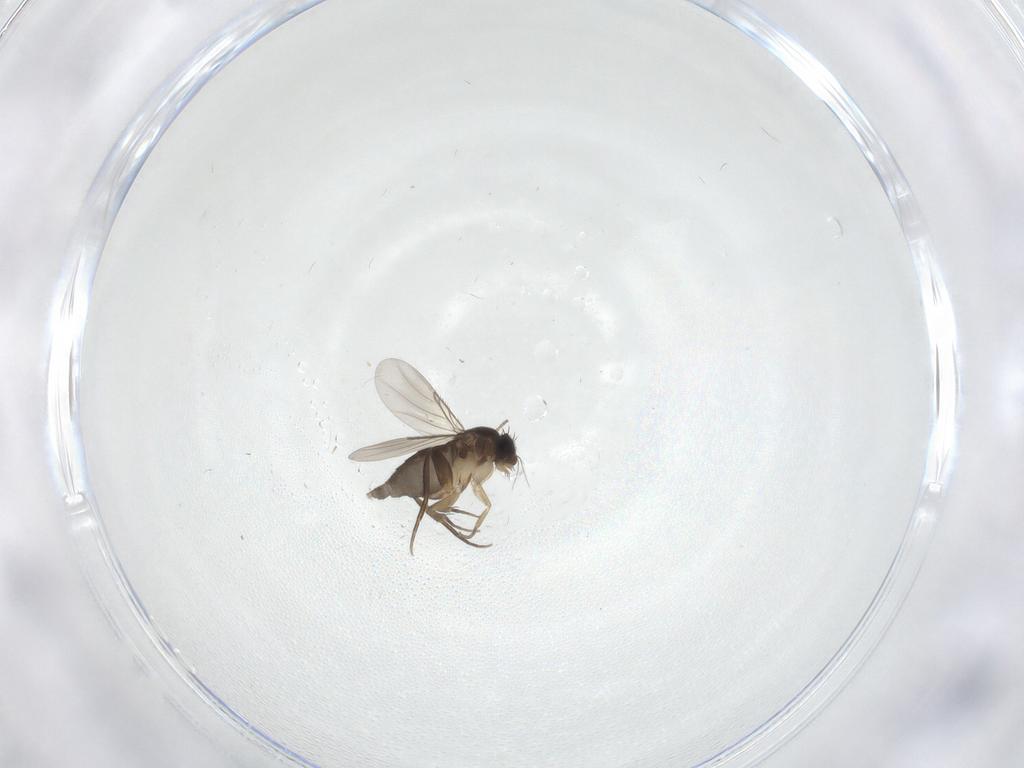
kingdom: Animalia
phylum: Arthropoda
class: Insecta
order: Diptera
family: Phoridae
